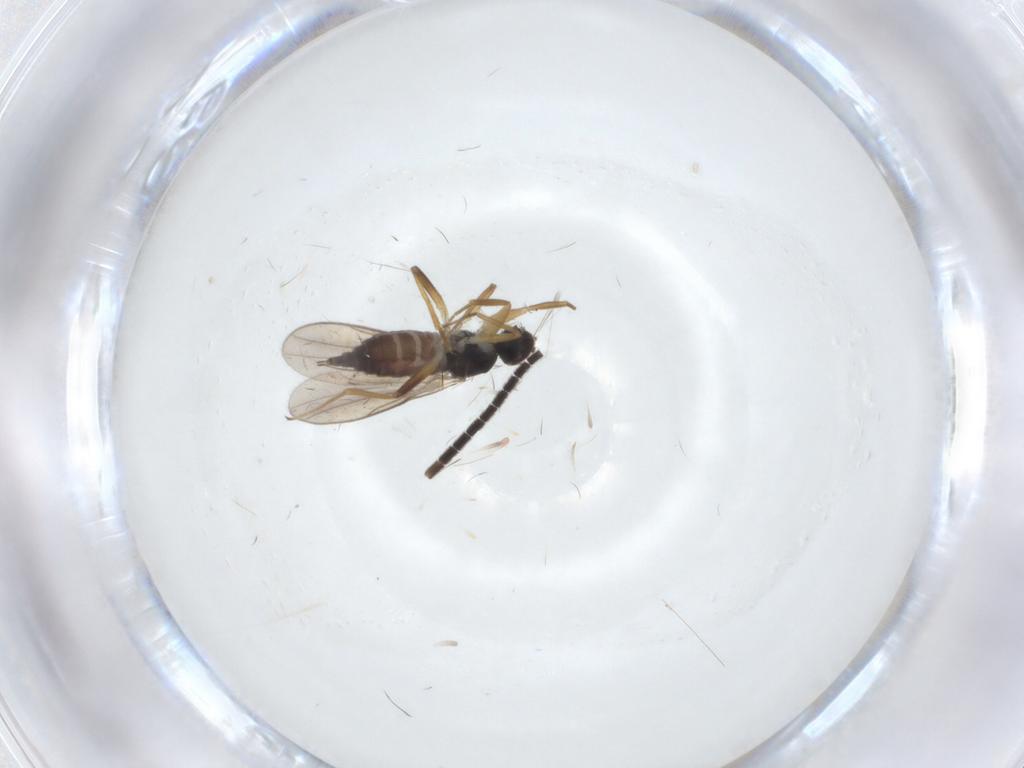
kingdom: Animalia
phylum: Arthropoda
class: Insecta
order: Diptera
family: Hybotidae
